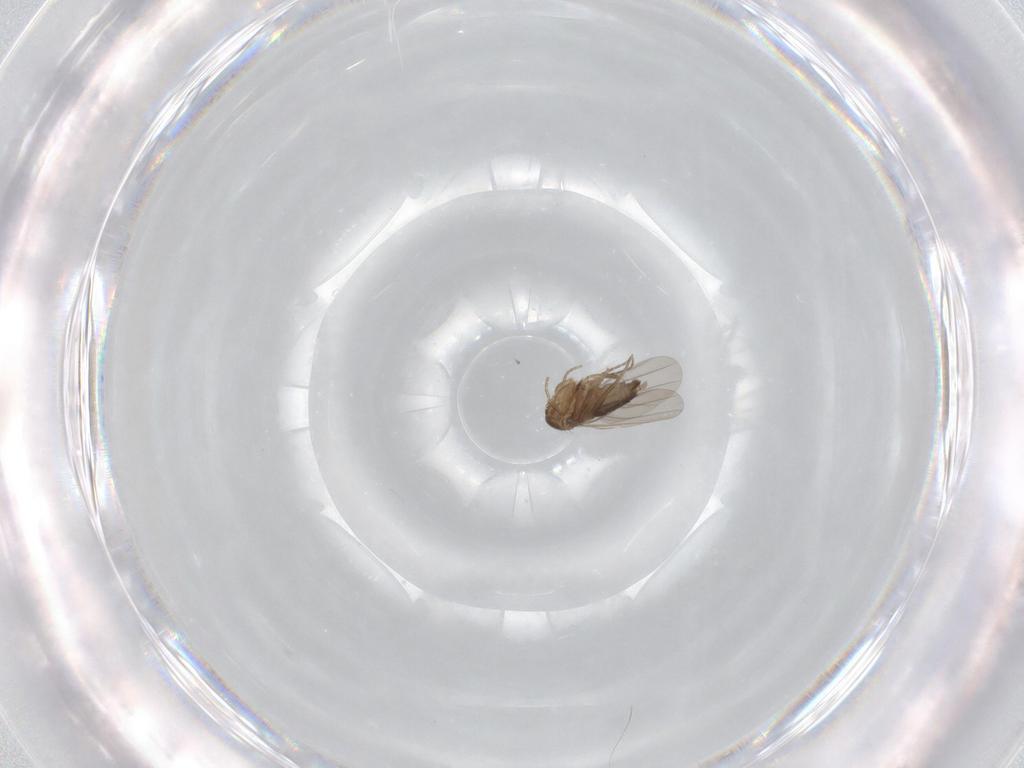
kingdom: Animalia
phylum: Arthropoda
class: Insecta
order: Diptera
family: Phoridae
